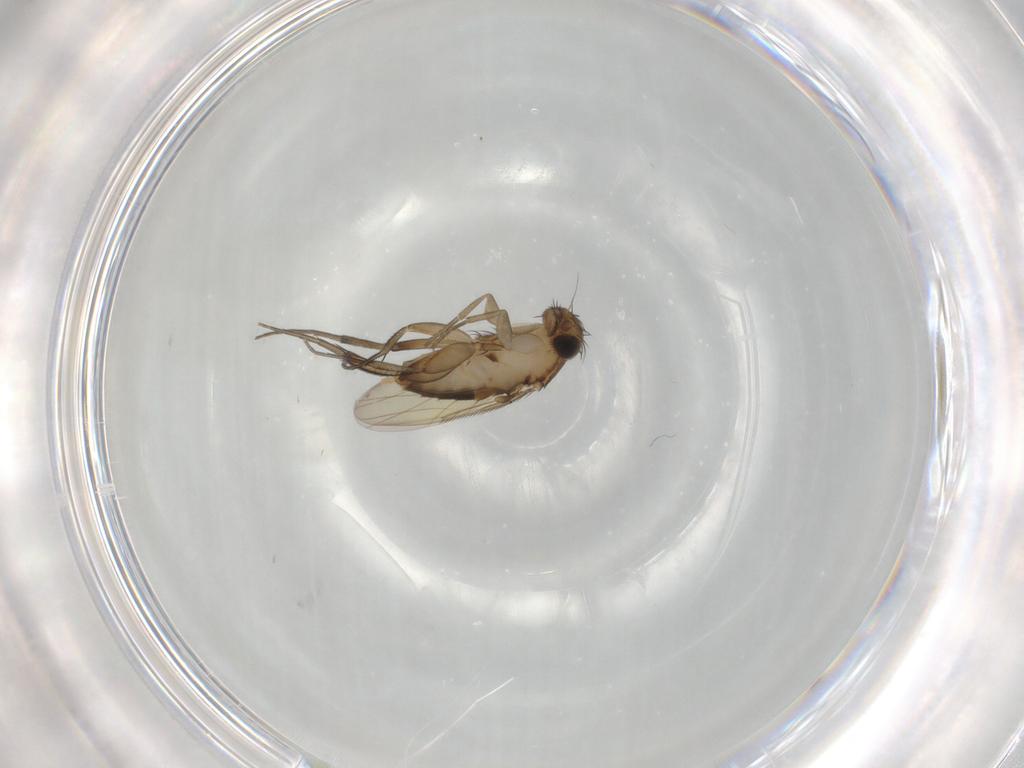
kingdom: Animalia
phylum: Arthropoda
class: Insecta
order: Diptera
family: Phoridae
